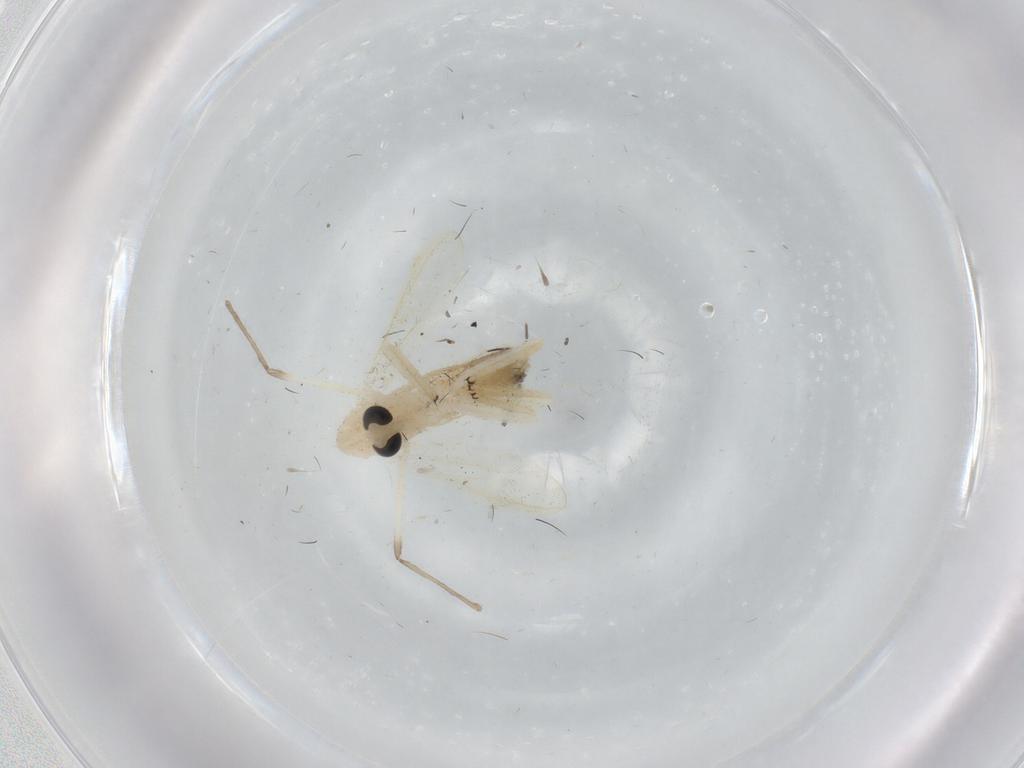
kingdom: Animalia
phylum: Arthropoda
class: Insecta
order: Diptera
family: Chironomidae
